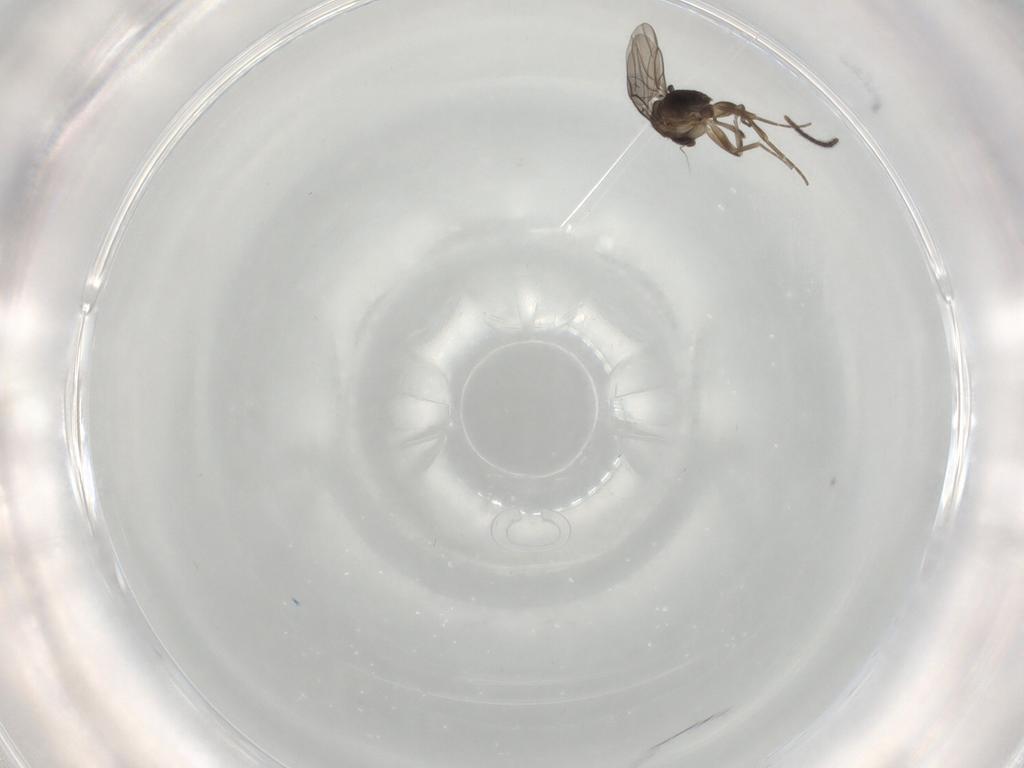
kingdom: Animalia
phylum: Arthropoda
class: Insecta
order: Diptera
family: Sciaridae
